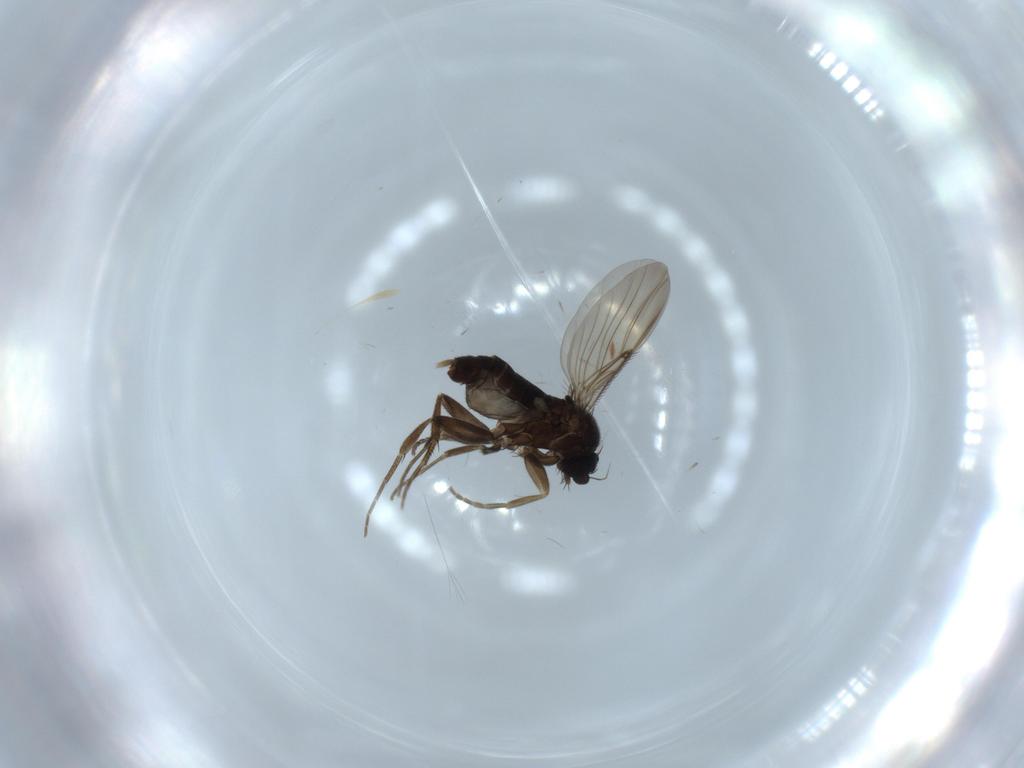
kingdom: Animalia
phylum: Arthropoda
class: Insecta
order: Diptera
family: Phoridae
